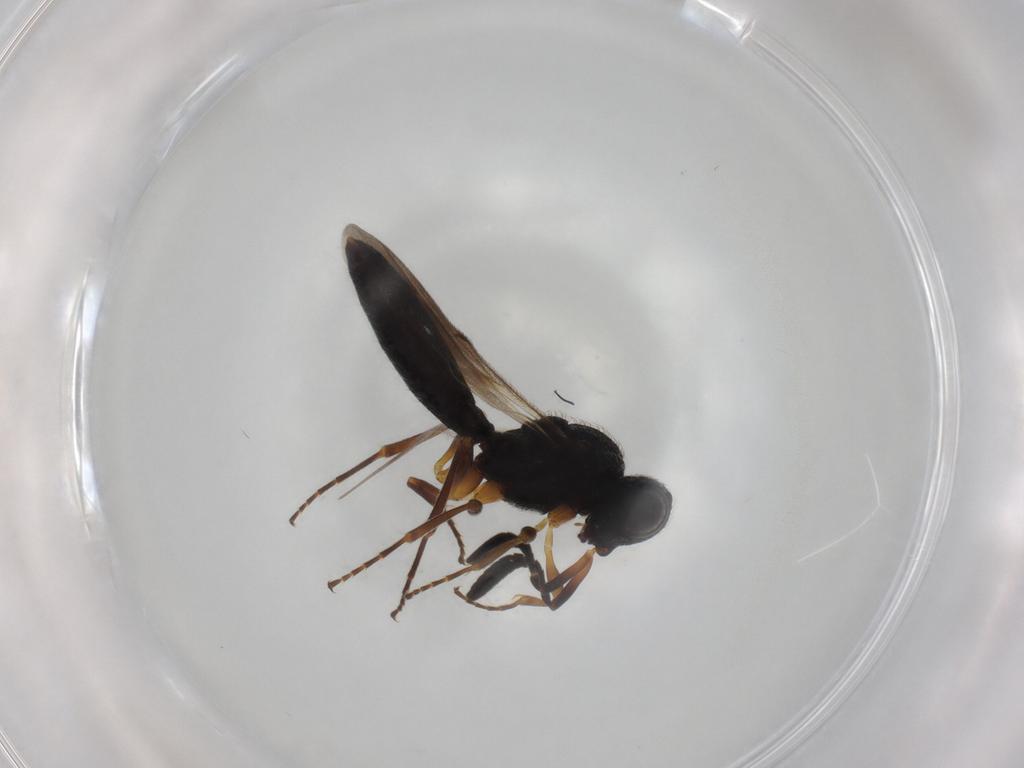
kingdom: Animalia
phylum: Arthropoda
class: Insecta
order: Hymenoptera
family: Scelionidae
